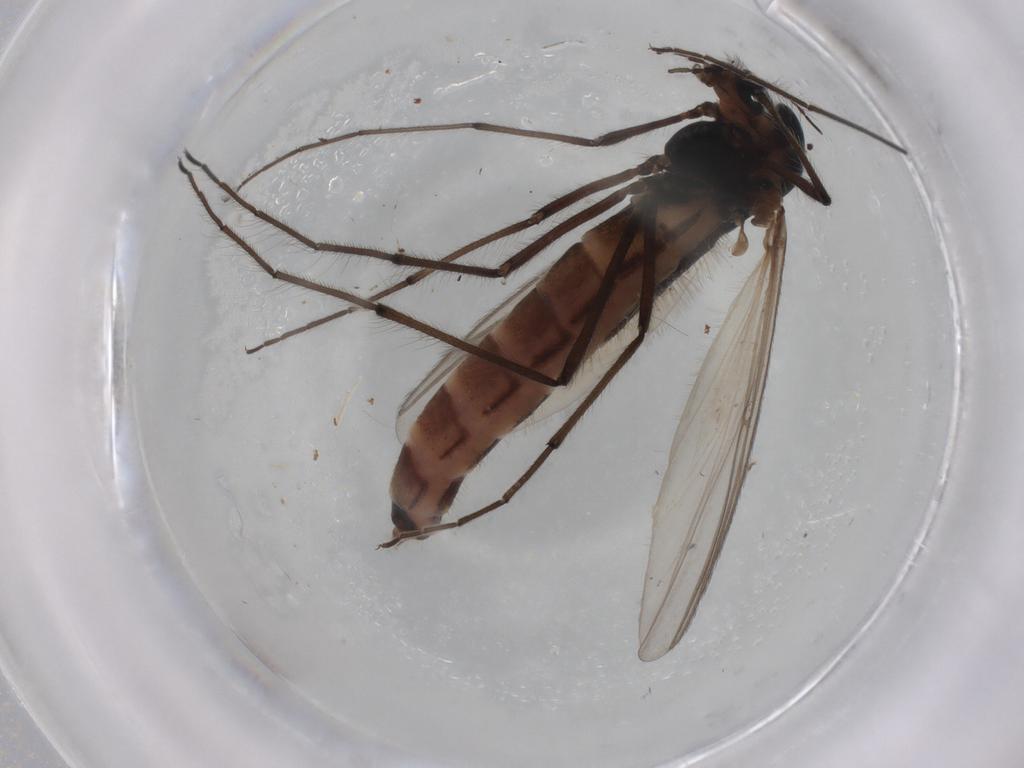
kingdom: Animalia
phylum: Arthropoda
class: Insecta
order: Diptera
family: Chironomidae
